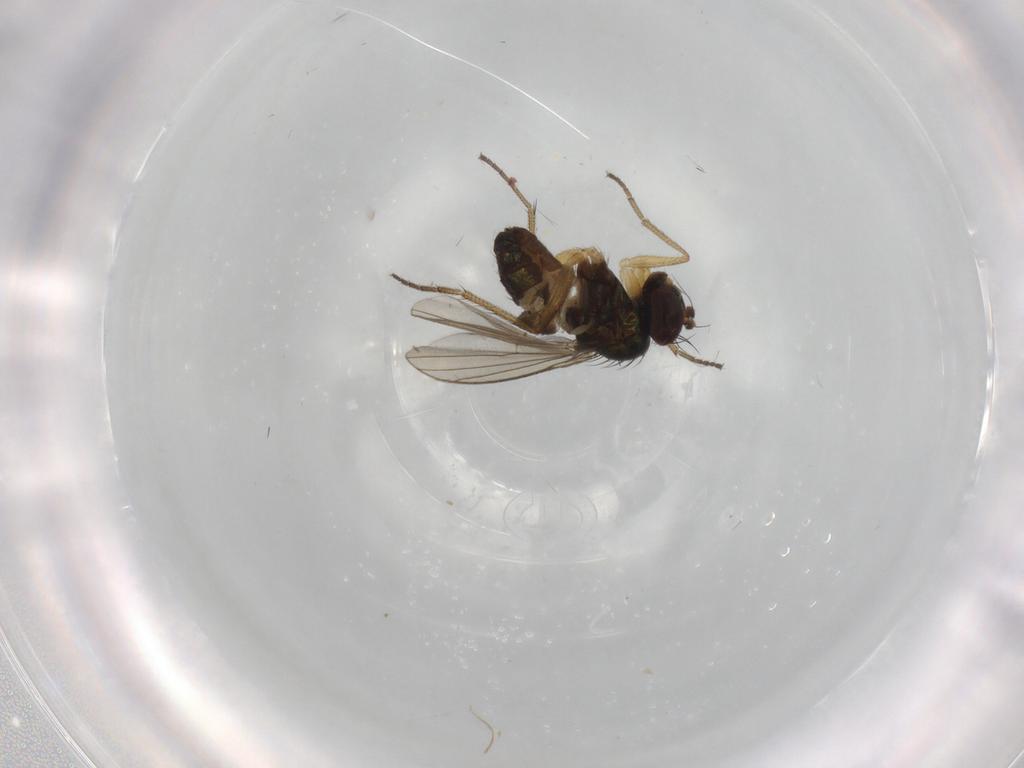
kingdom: Animalia
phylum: Arthropoda
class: Insecta
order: Diptera
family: Dolichopodidae
